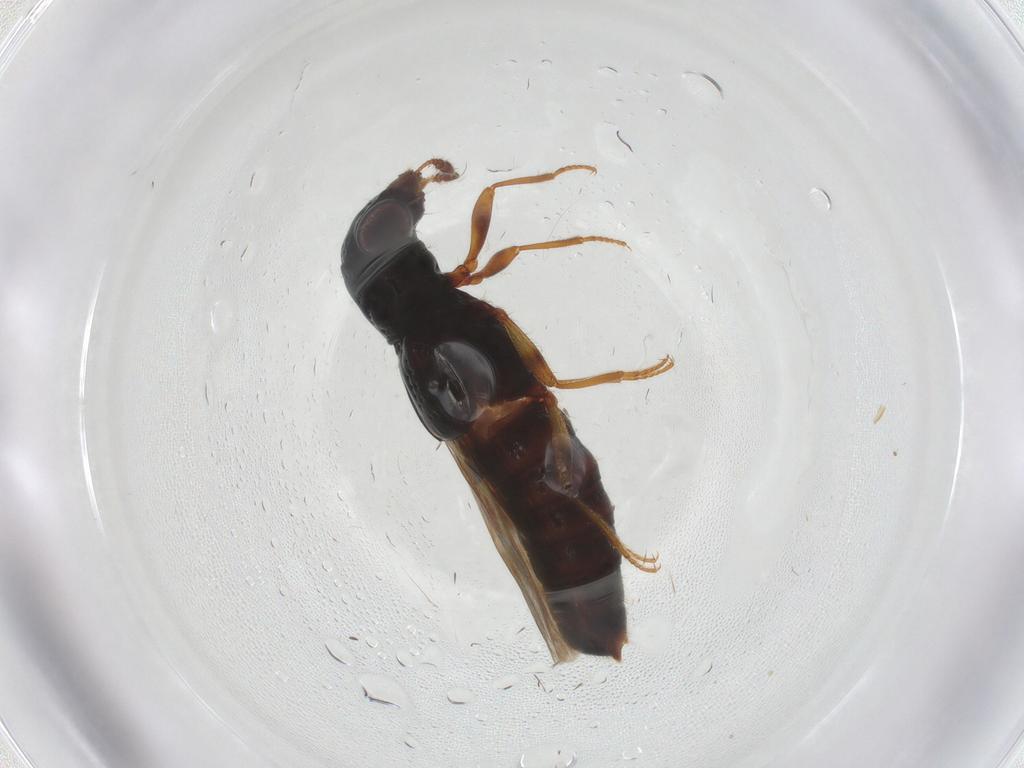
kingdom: Animalia
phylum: Arthropoda
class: Insecta
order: Coleoptera
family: Staphylinidae
